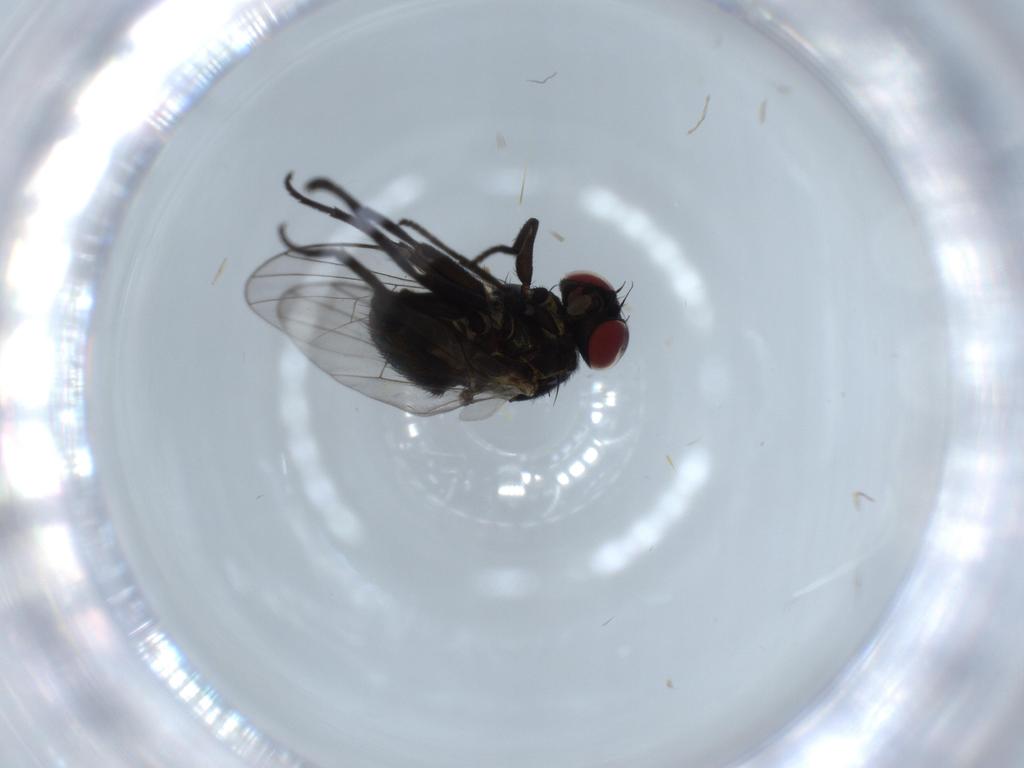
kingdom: Animalia
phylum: Arthropoda
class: Insecta
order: Diptera
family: Agromyzidae
